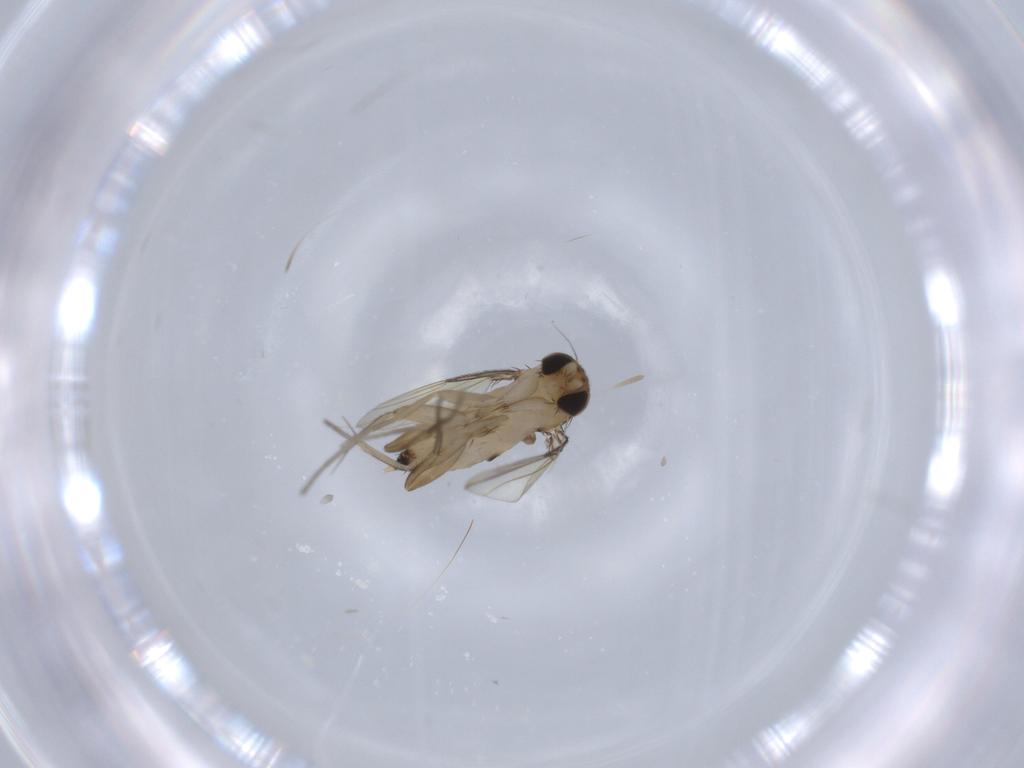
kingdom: Animalia
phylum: Arthropoda
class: Insecta
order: Diptera
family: Phoridae
